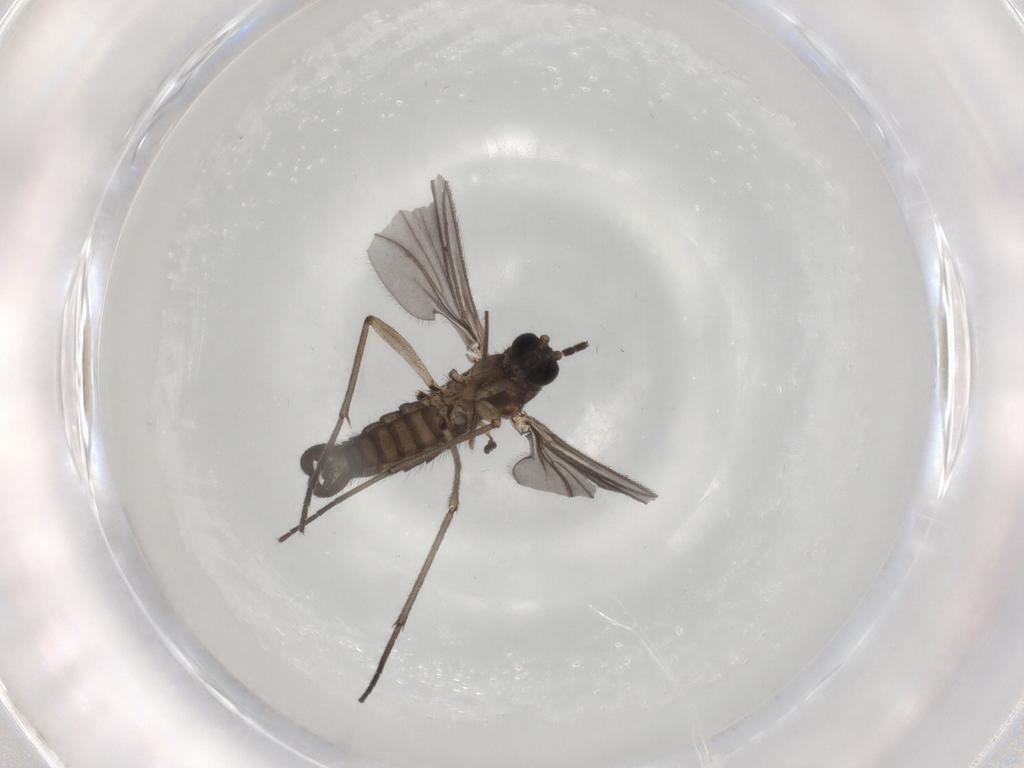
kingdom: Animalia
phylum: Arthropoda
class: Insecta
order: Diptera
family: Sciaridae
